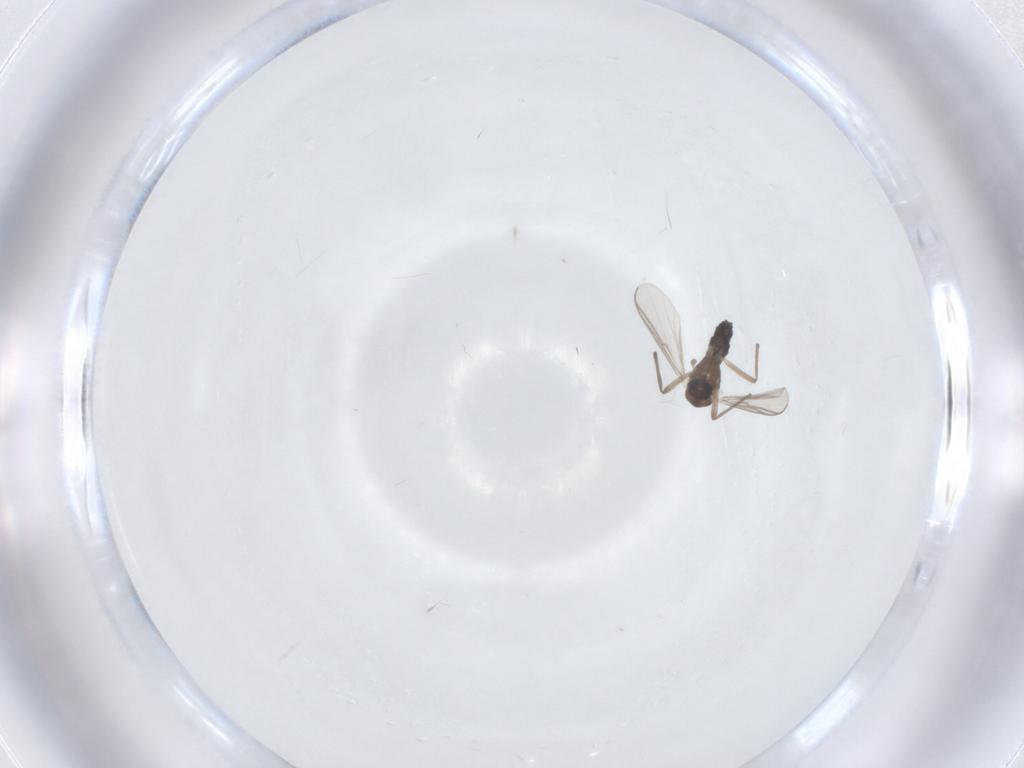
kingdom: Animalia
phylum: Arthropoda
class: Insecta
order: Diptera
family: Chironomidae
